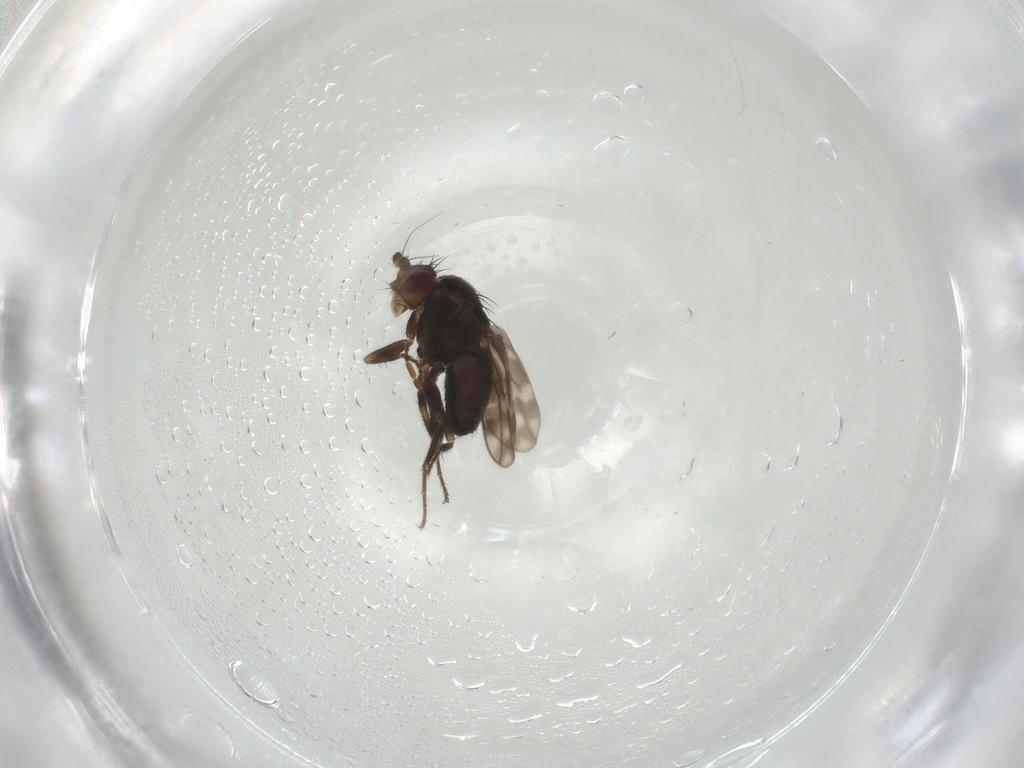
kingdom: Animalia
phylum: Arthropoda
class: Insecta
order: Diptera
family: Sphaeroceridae
